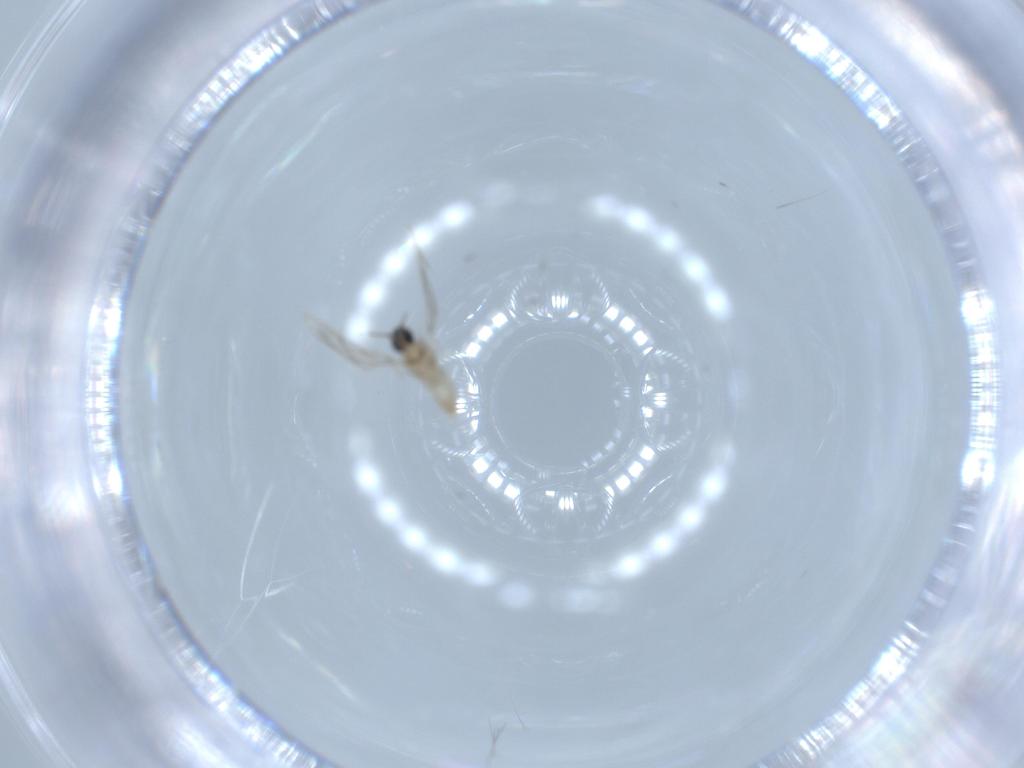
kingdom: Animalia
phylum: Arthropoda
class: Insecta
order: Diptera
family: Cecidomyiidae
